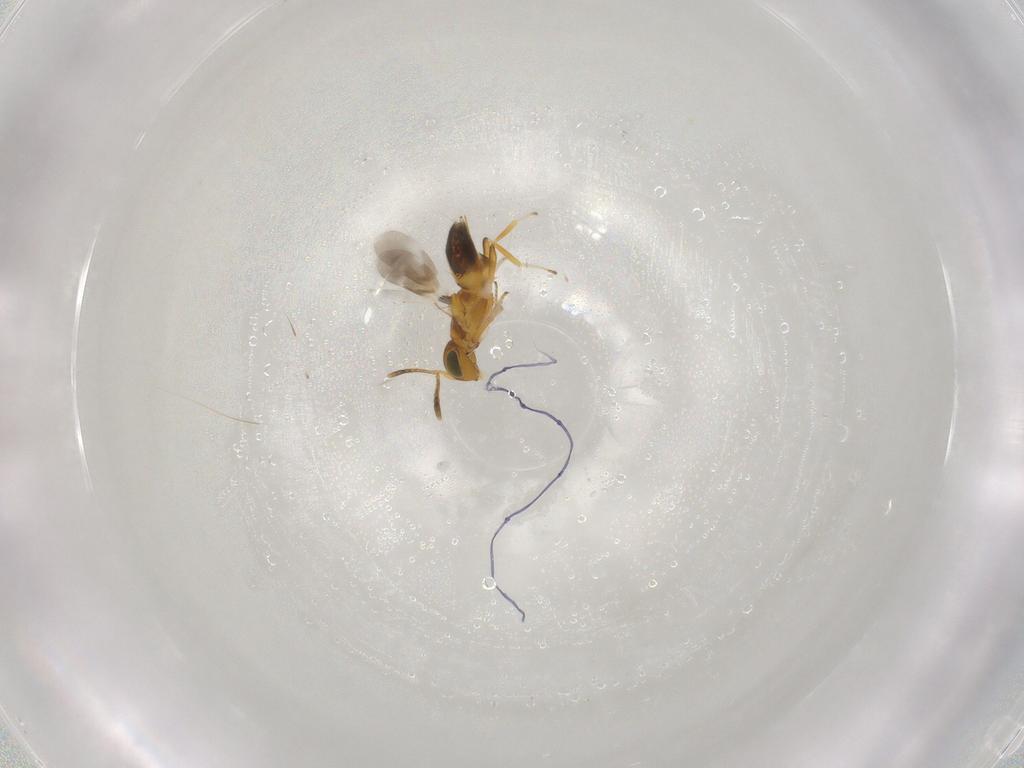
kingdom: Animalia
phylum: Arthropoda
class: Insecta
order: Hymenoptera
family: Encyrtidae
